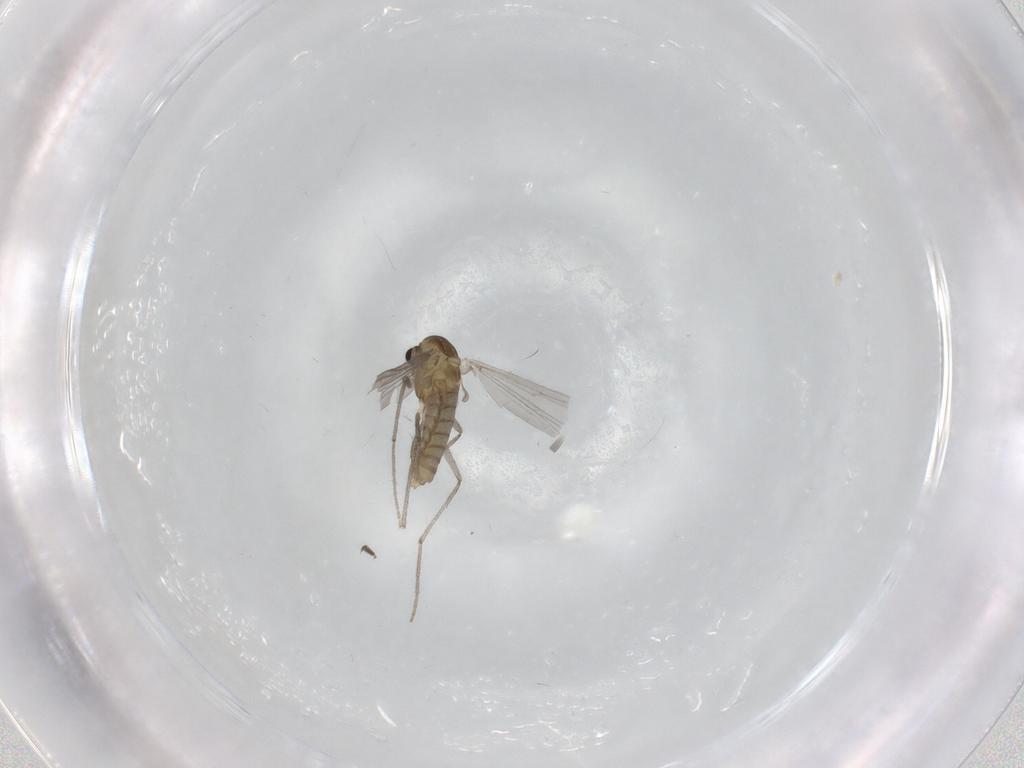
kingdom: Animalia
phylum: Arthropoda
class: Insecta
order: Diptera
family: Chironomidae
